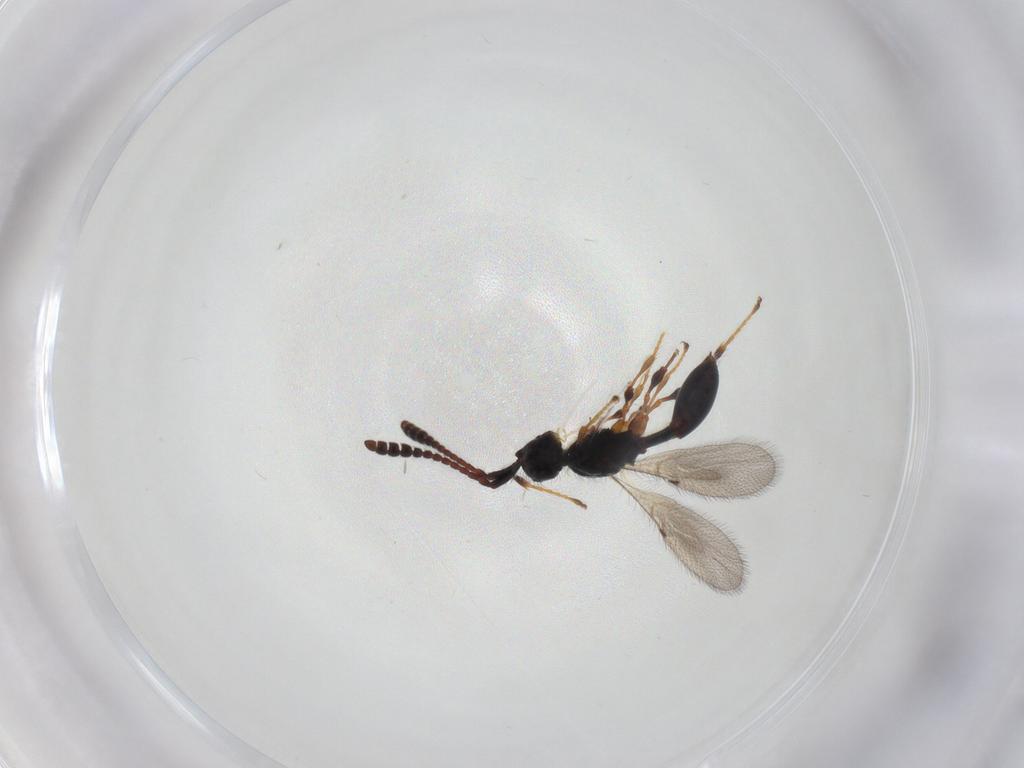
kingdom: Animalia
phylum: Arthropoda
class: Insecta
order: Hymenoptera
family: Diapriidae
